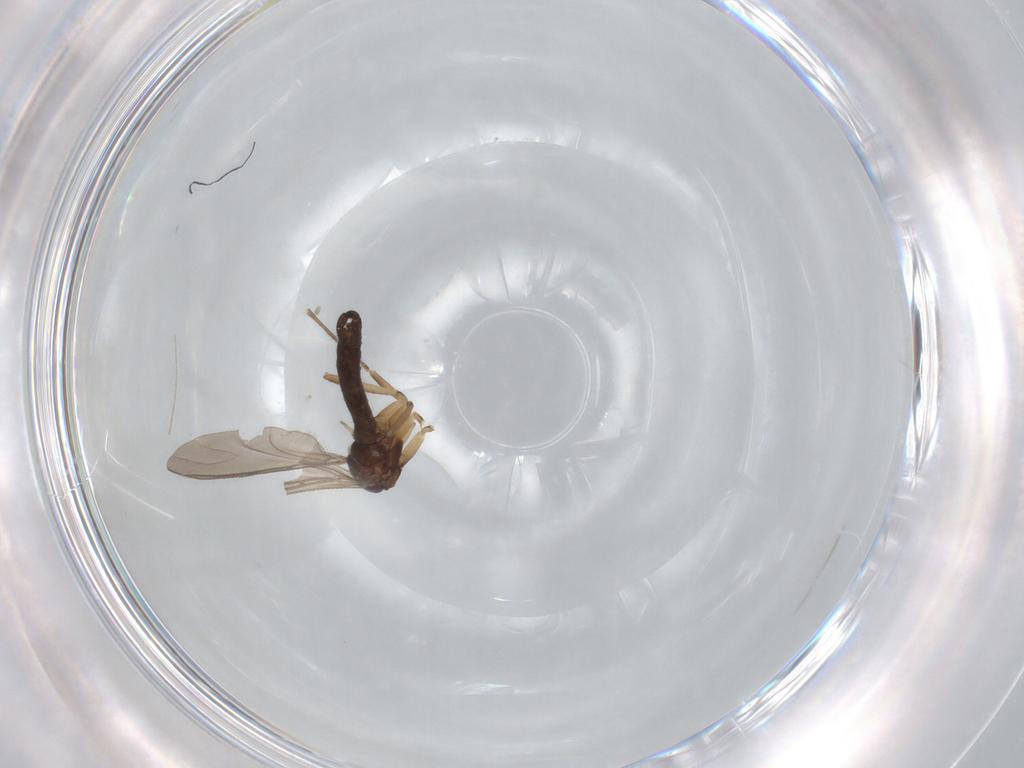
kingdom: Animalia
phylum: Arthropoda
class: Insecta
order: Diptera
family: Sciaridae
